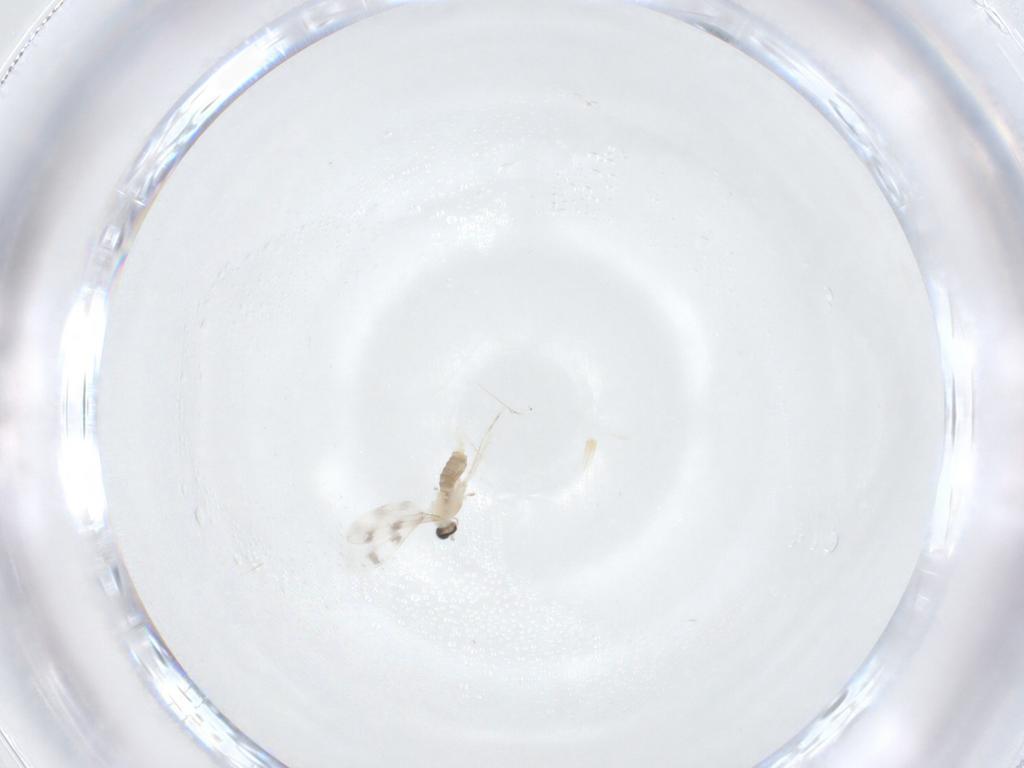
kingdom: Animalia
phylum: Arthropoda
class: Insecta
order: Diptera
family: Cecidomyiidae
